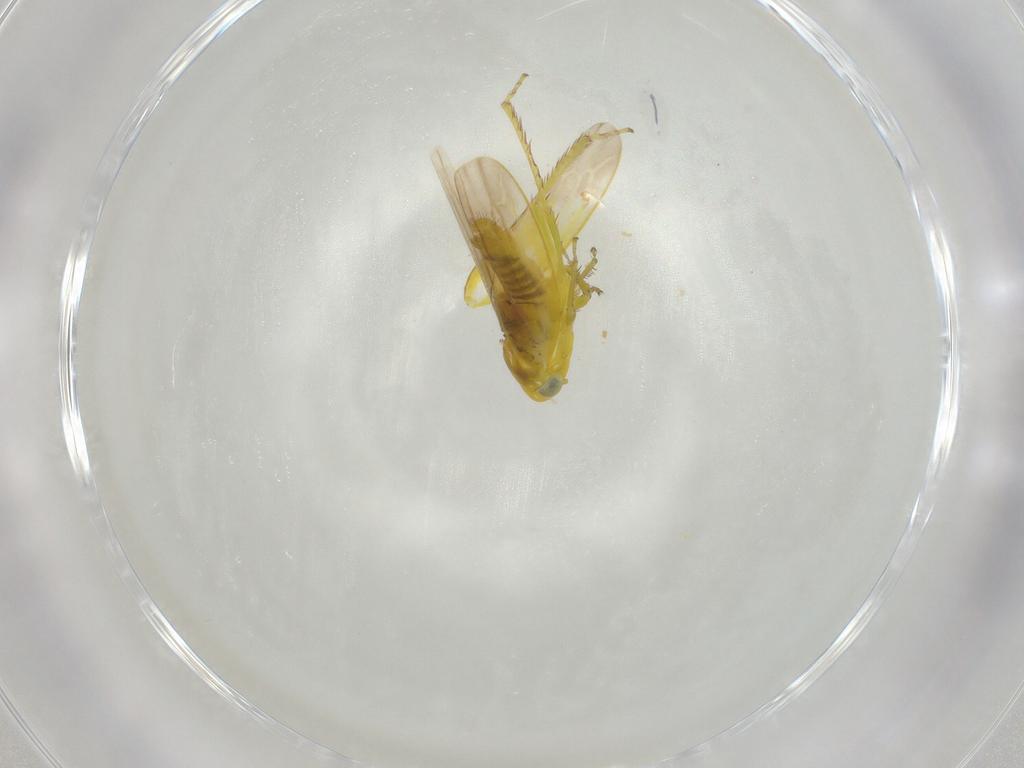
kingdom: Animalia
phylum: Arthropoda
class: Insecta
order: Hemiptera
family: Cicadellidae
